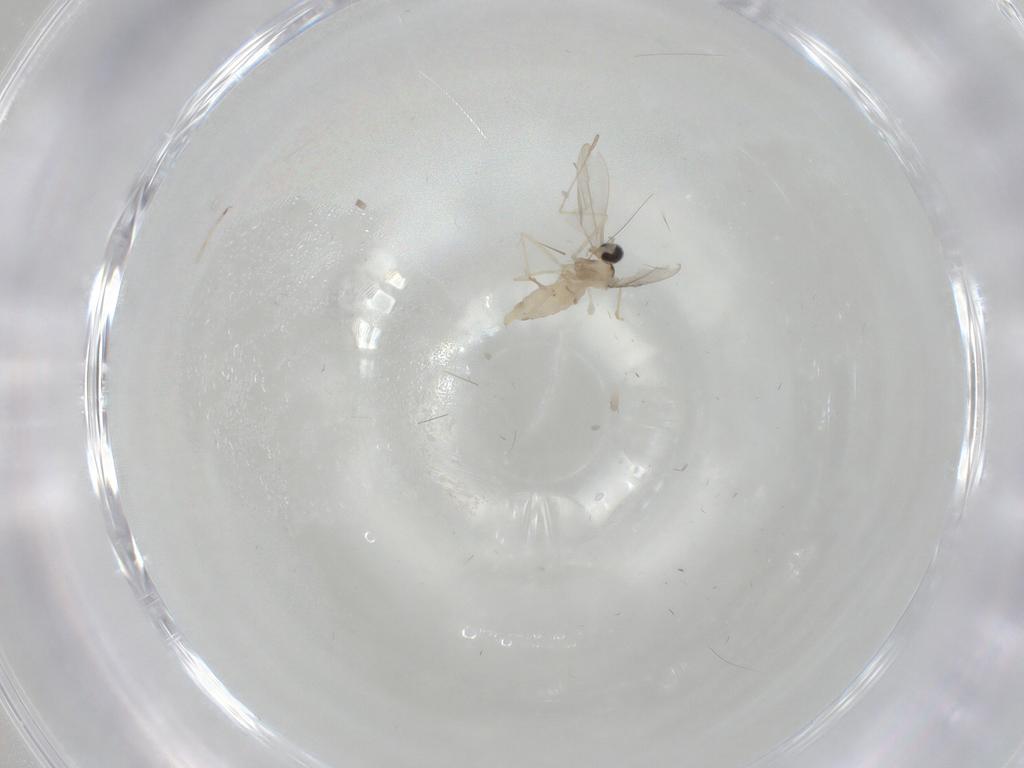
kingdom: Animalia
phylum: Arthropoda
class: Insecta
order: Diptera
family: Cecidomyiidae
